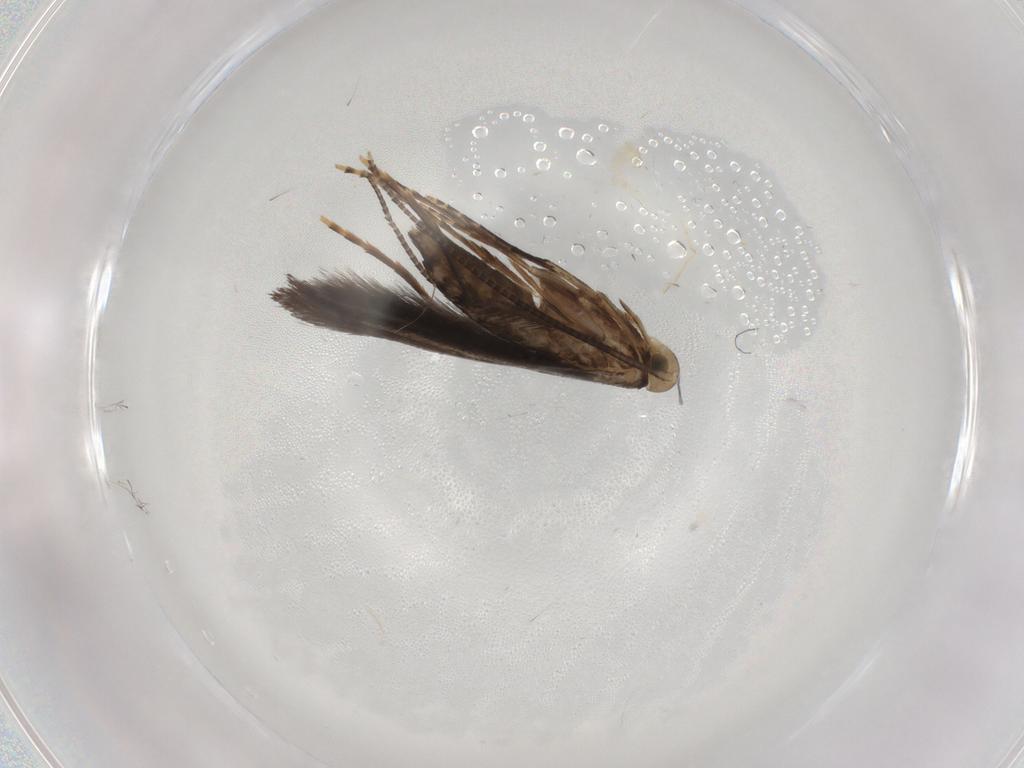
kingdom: Animalia
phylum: Arthropoda
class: Insecta
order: Lepidoptera
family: Gracillariidae
